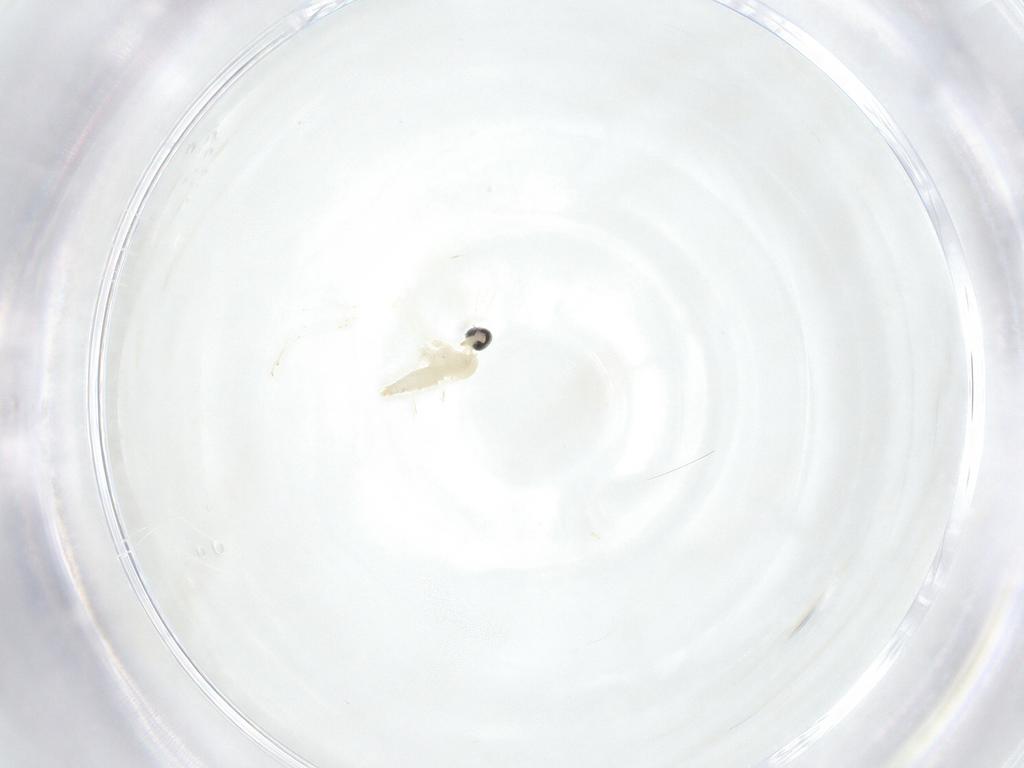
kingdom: Animalia
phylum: Arthropoda
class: Insecta
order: Diptera
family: Cecidomyiidae
